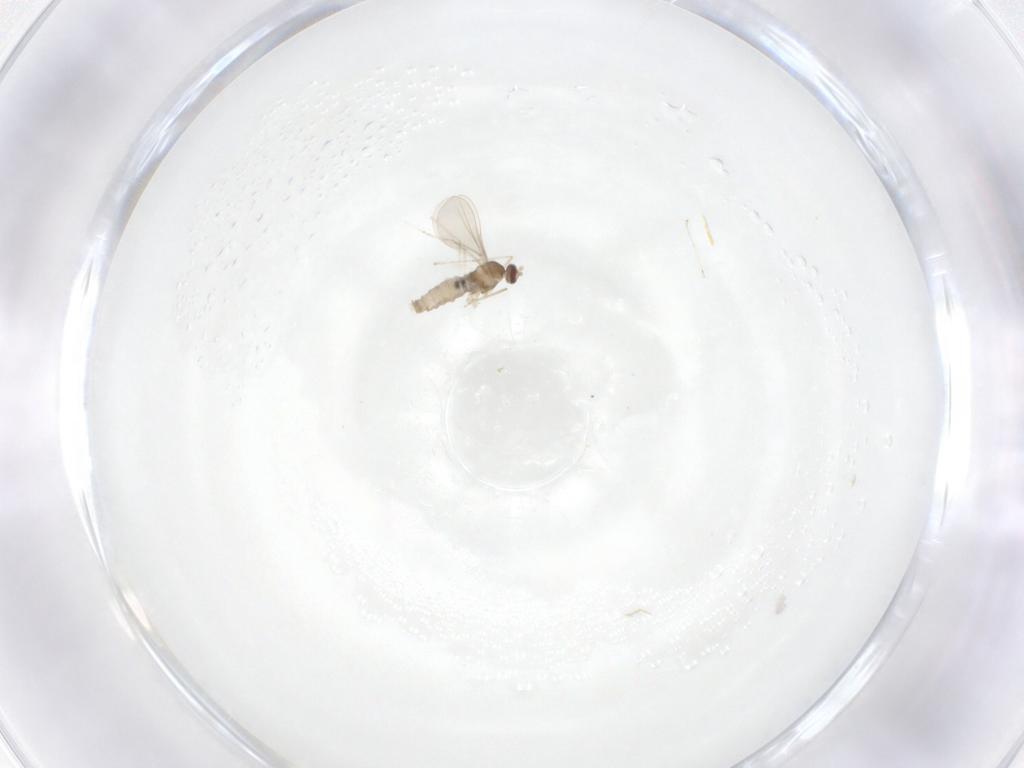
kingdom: Animalia
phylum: Arthropoda
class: Insecta
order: Diptera
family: Cecidomyiidae
